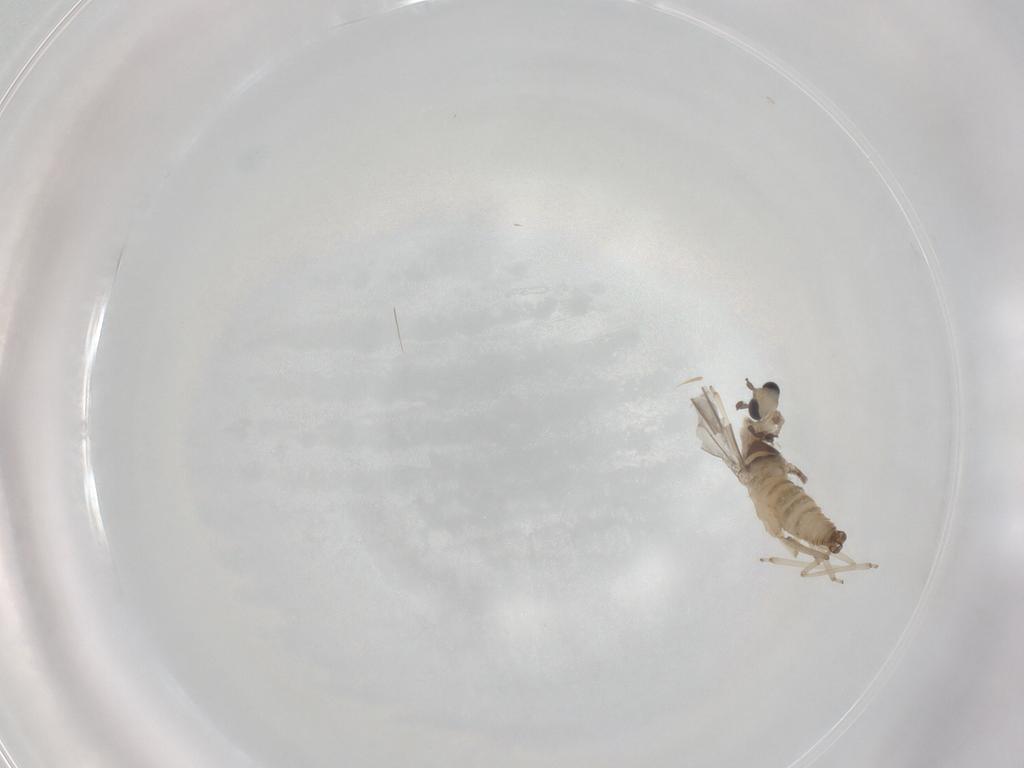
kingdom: Animalia
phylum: Arthropoda
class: Insecta
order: Diptera
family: Cecidomyiidae
